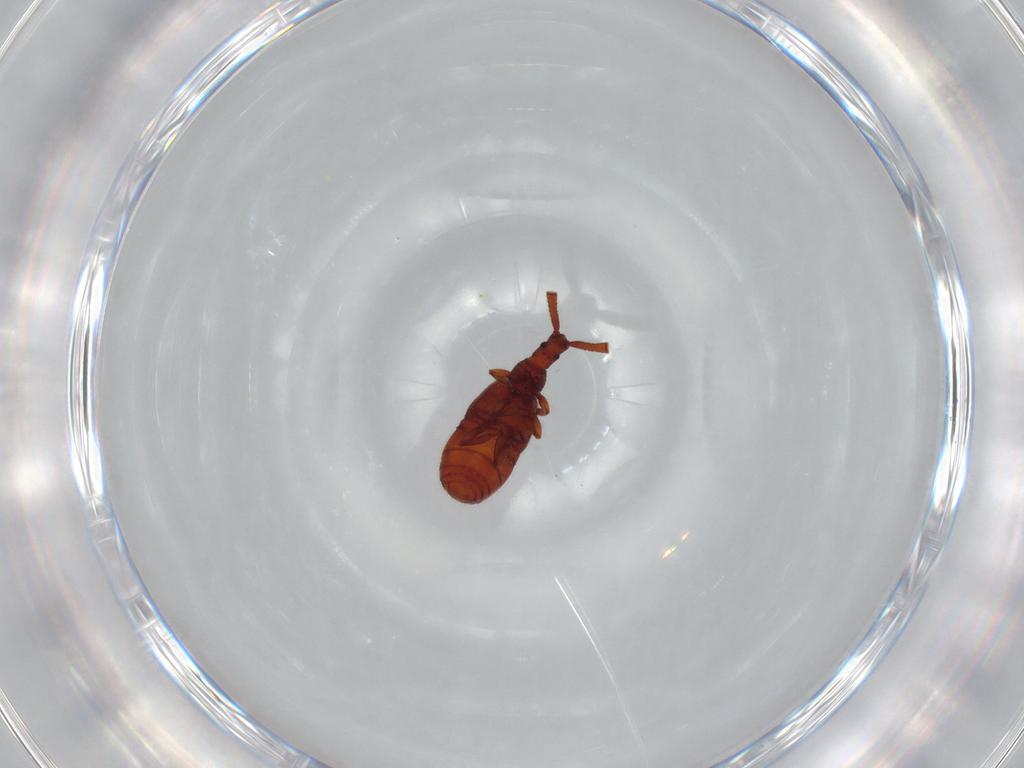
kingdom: Animalia
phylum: Arthropoda
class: Insecta
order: Coleoptera
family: Staphylinidae
